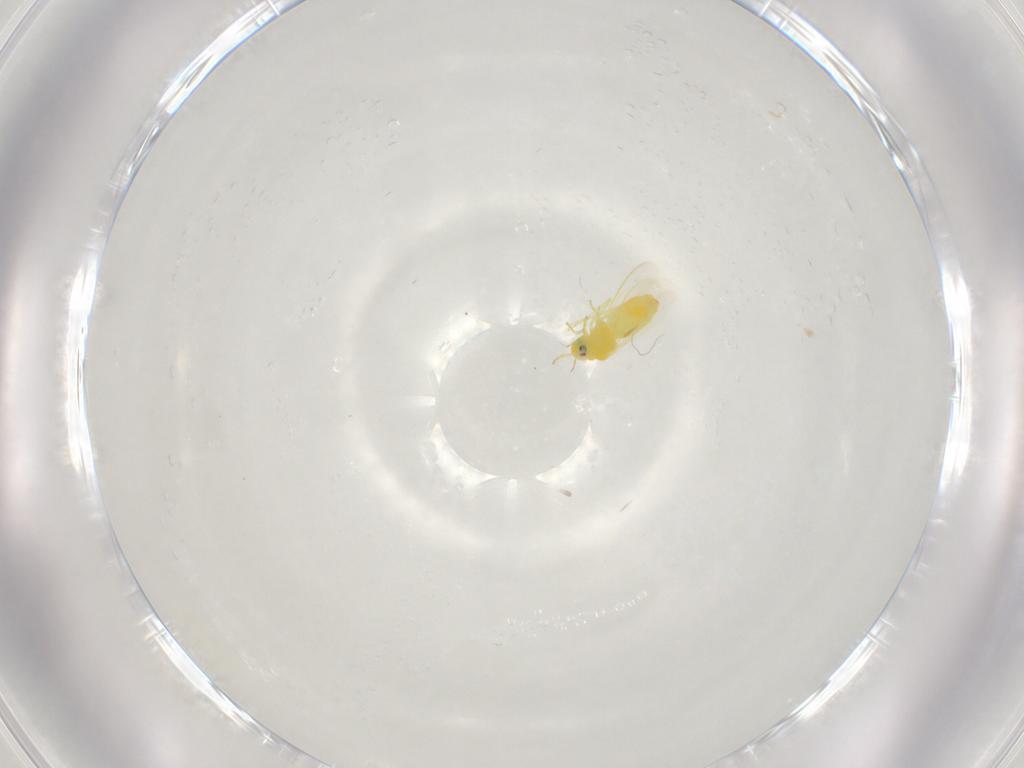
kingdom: Animalia
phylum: Arthropoda
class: Insecta
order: Hemiptera
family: Aleyrodidae
